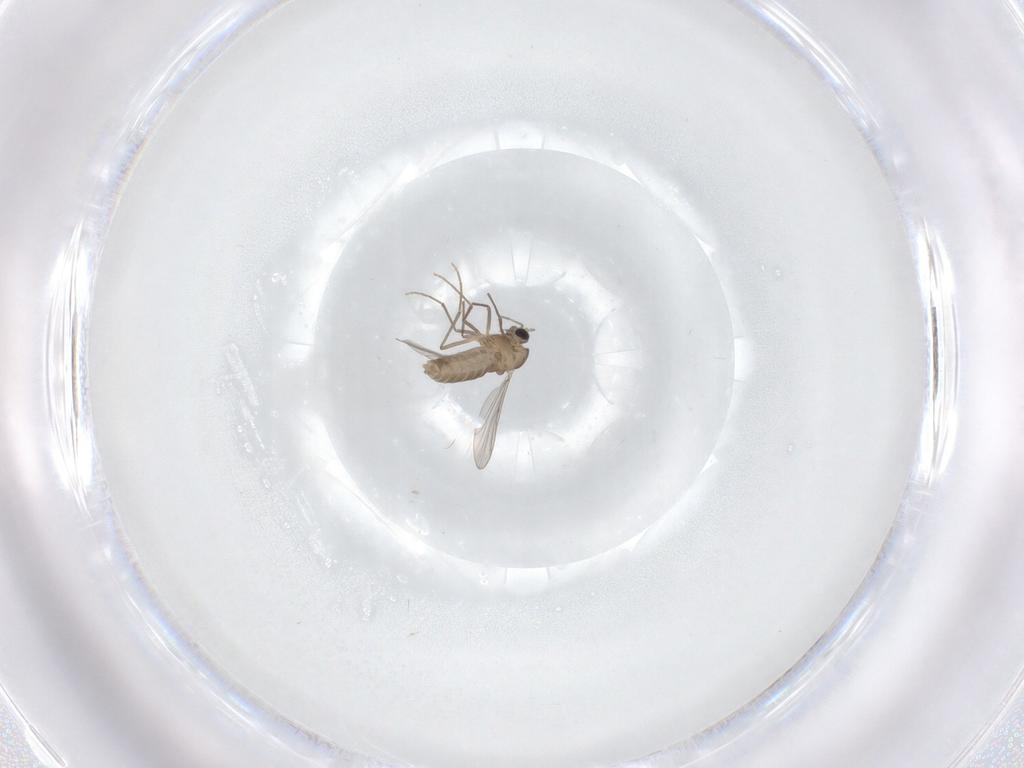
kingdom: Animalia
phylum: Arthropoda
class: Insecta
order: Diptera
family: Chironomidae
